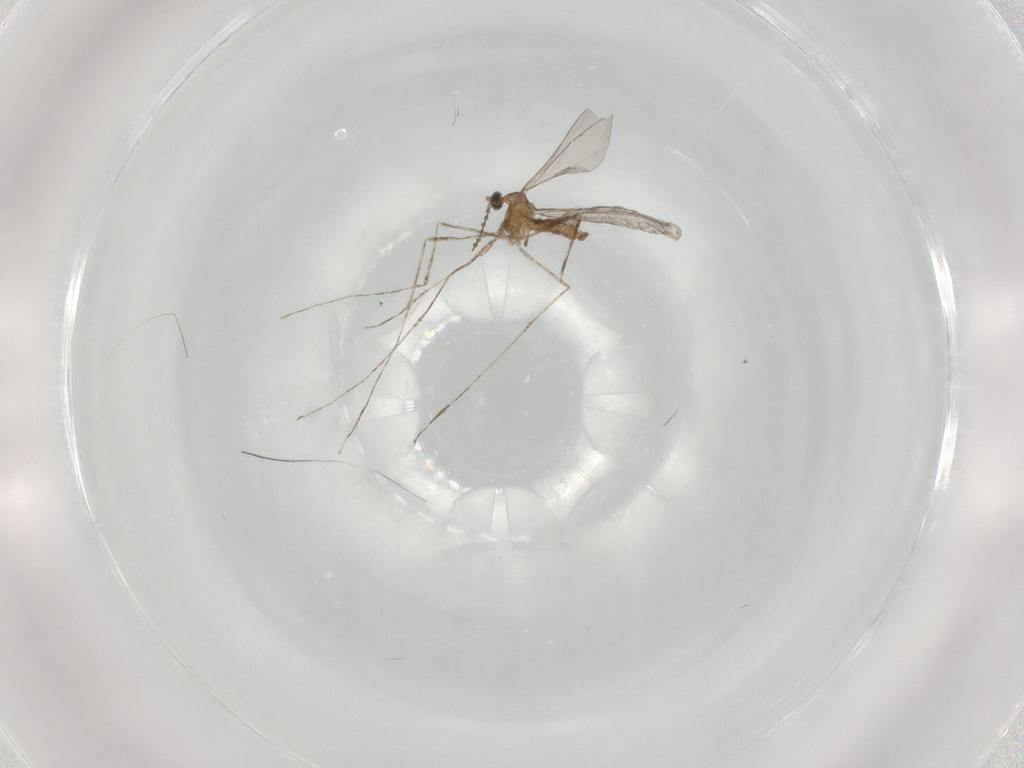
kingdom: Animalia
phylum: Arthropoda
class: Insecta
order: Diptera
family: Cecidomyiidae
